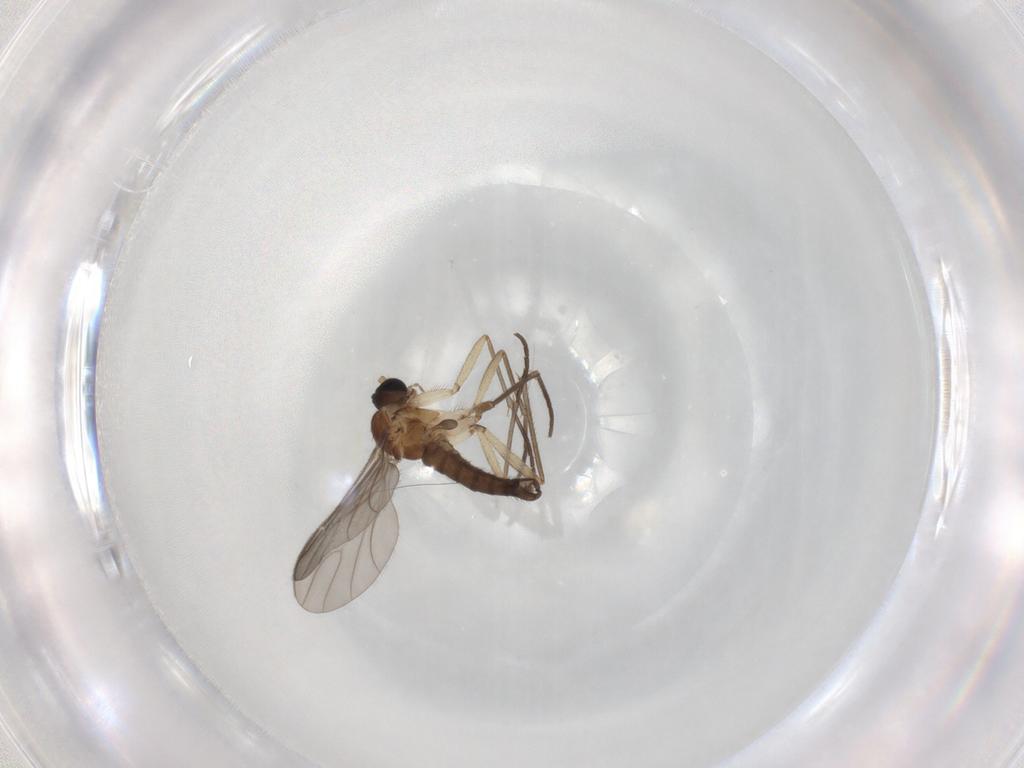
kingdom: Animalia
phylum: Arthropoda
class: Insecta
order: Diptera
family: Sciaridae
